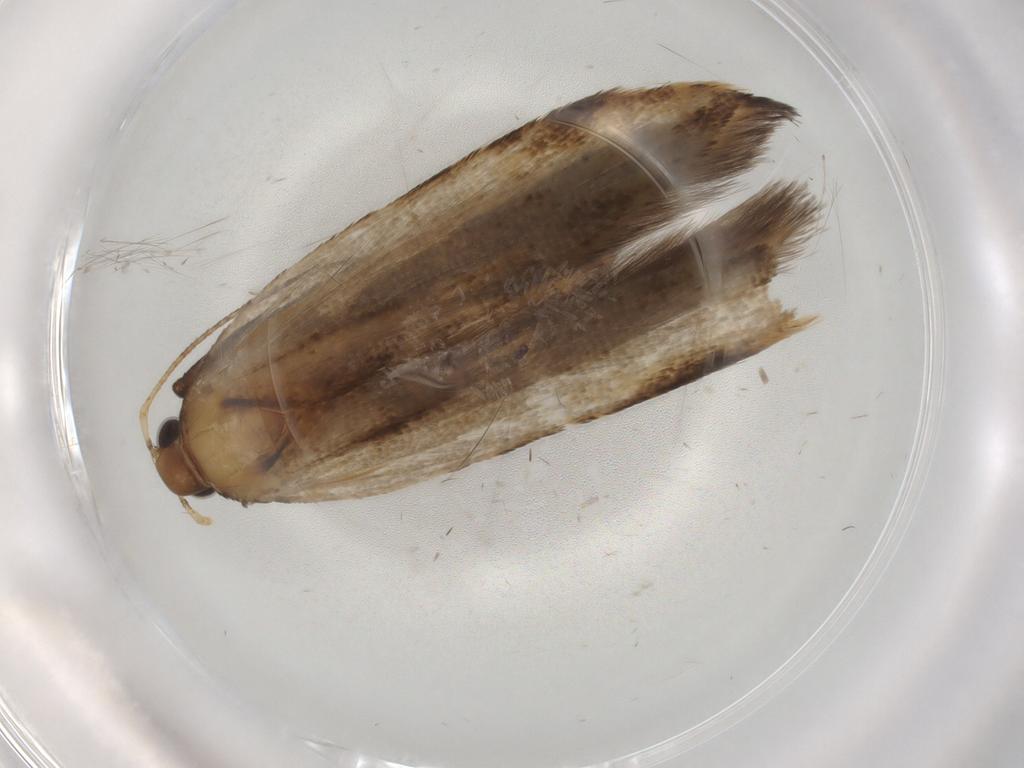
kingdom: Animalia
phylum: Arthropoda
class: Insecta
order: Lepidoptera
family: Gelechiidae
